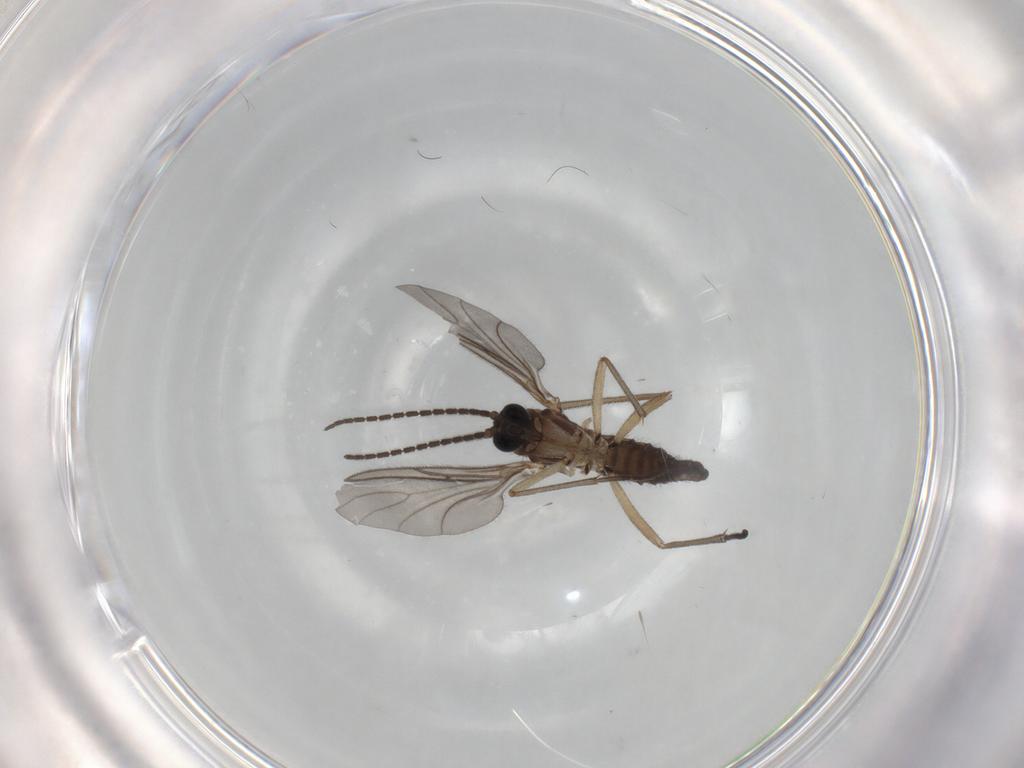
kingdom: Animalia
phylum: Arthropoda
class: Insecta
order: Diptera
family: Sciaridae
